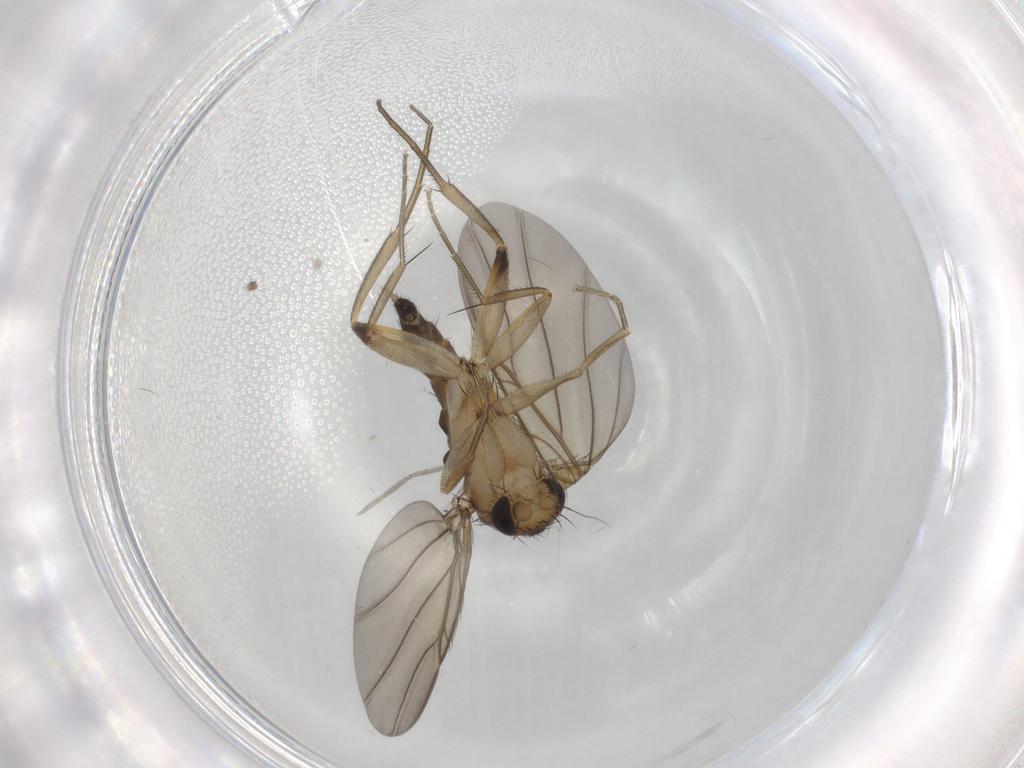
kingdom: Animalia
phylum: Arthropoda
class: Insecta
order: Diptera
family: Phoridae
